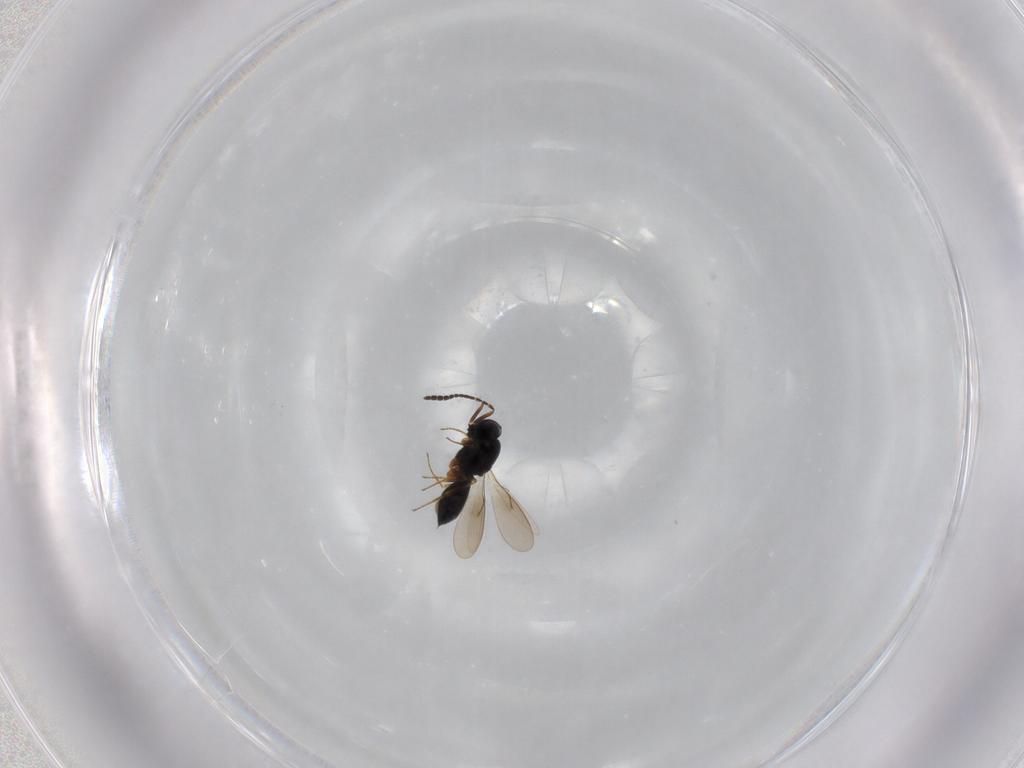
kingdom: Animalia
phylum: Arthropoda
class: Insecta
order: Hymenoptera
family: Scelionidae
